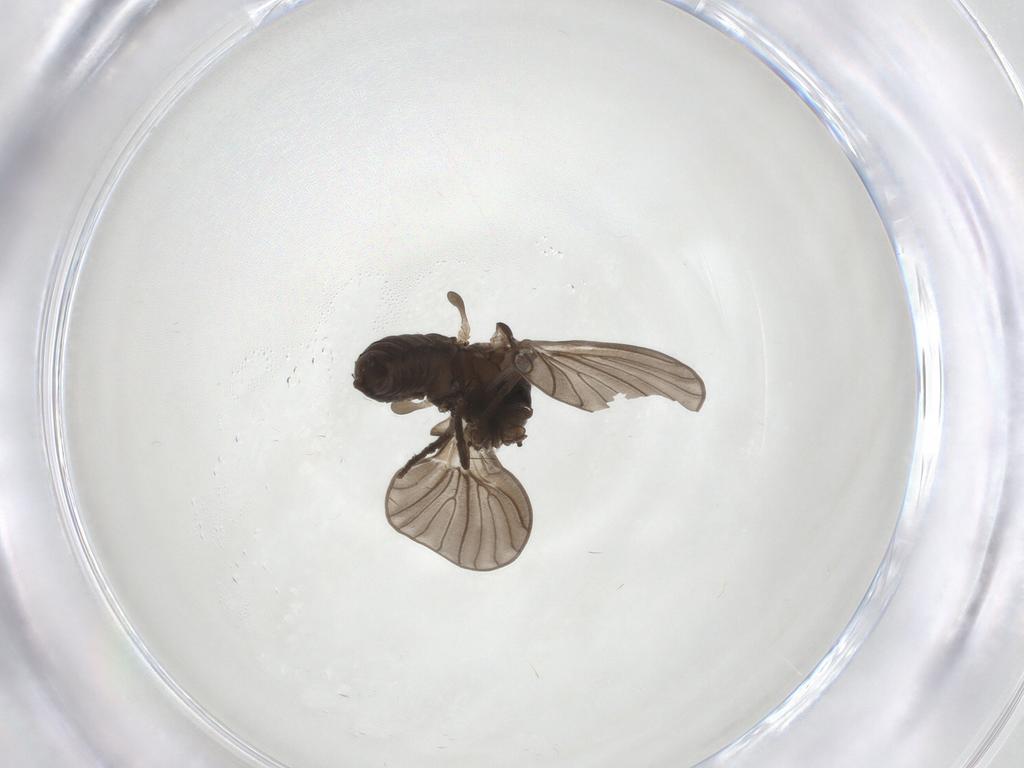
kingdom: Animalia
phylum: Arthropoda
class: Insecta
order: Diptera
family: Psychodidae
